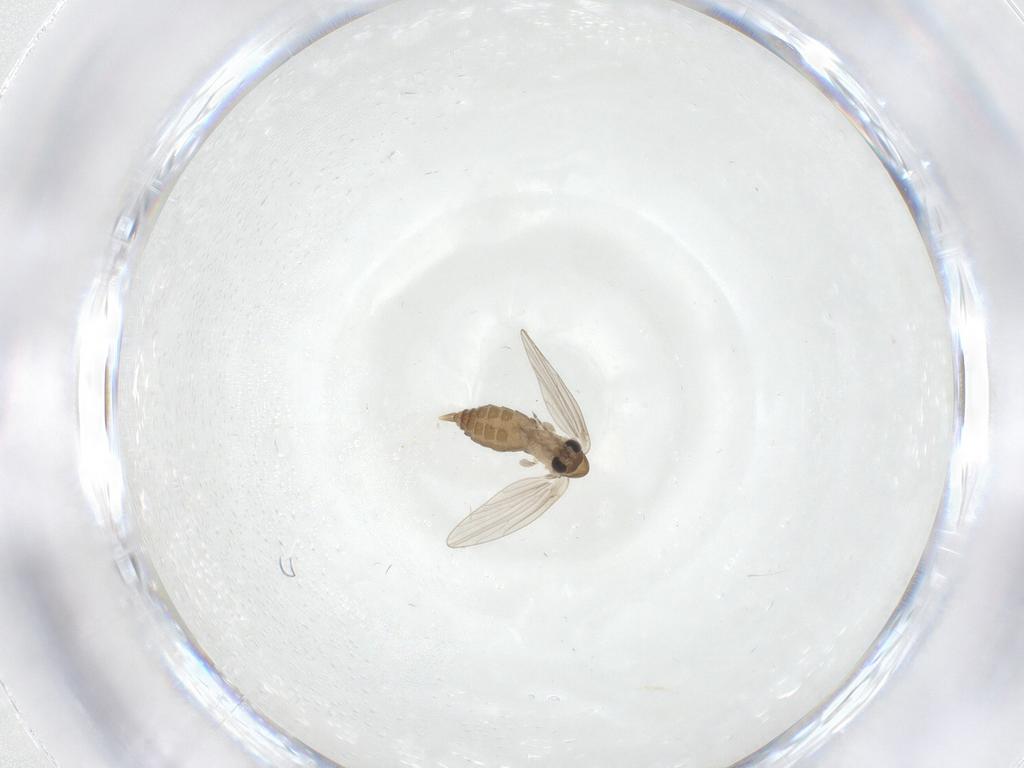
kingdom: Animalia
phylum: Arthropoda
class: Insecta
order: Diptera
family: Psychodidae
